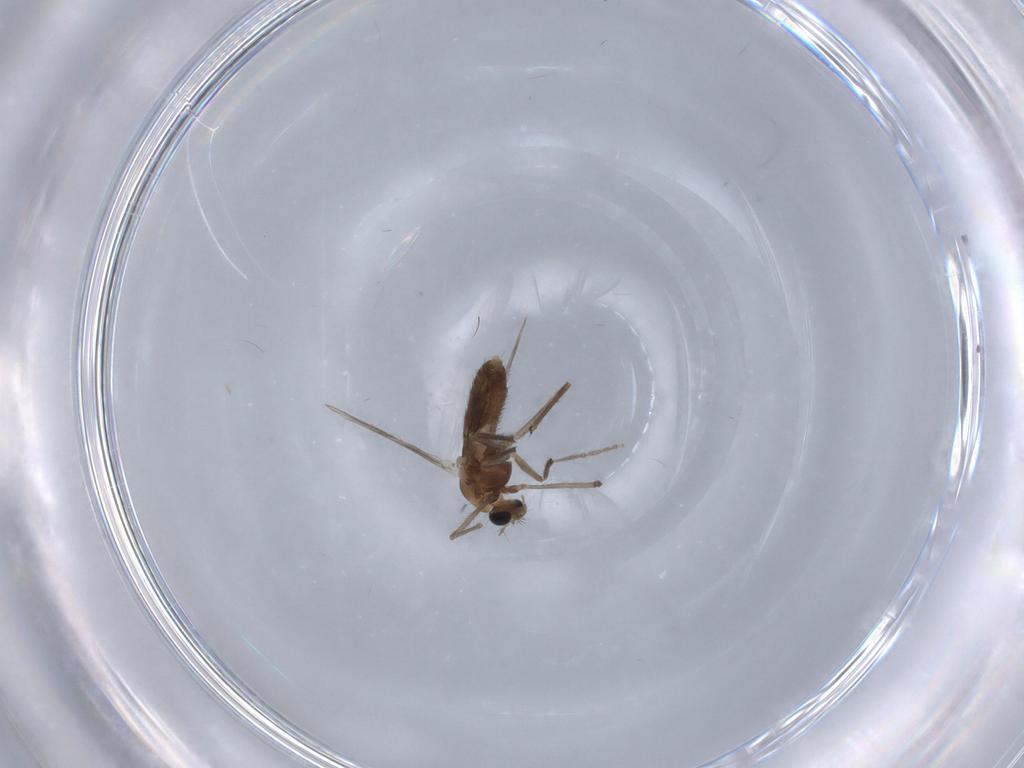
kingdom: Animalia
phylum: Arthropoda
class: Insecta
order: Diptera
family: Chironomidae
